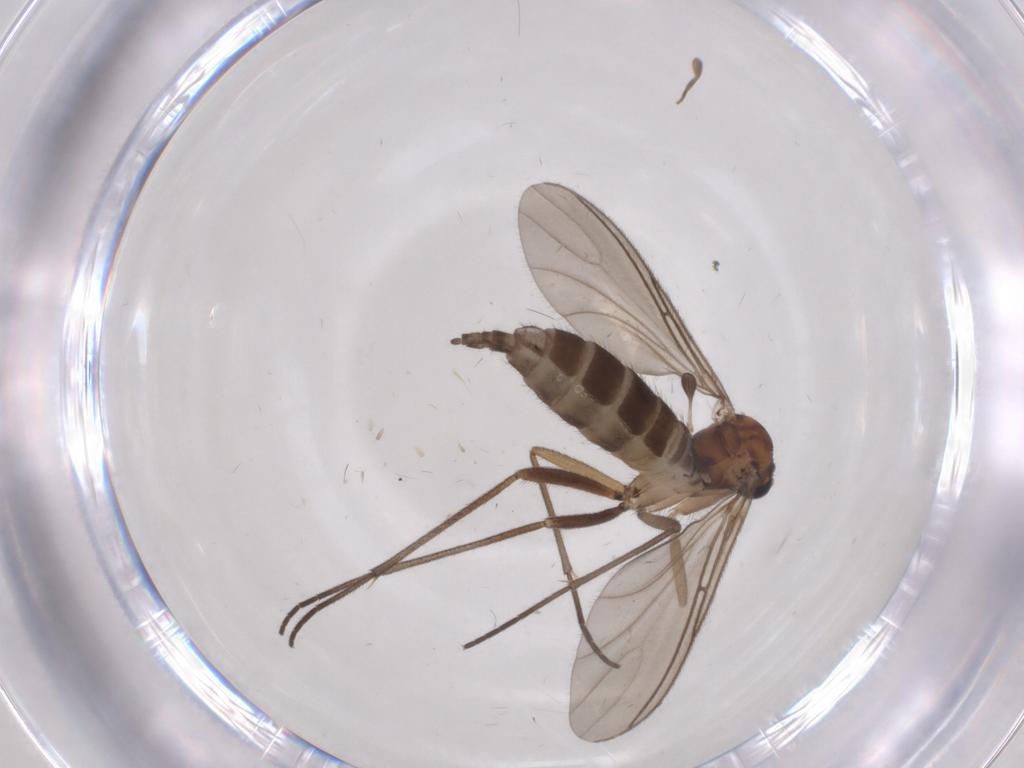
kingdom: Animalia
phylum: Arthropoda
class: Insecta
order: Diptera
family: Sciaridae
